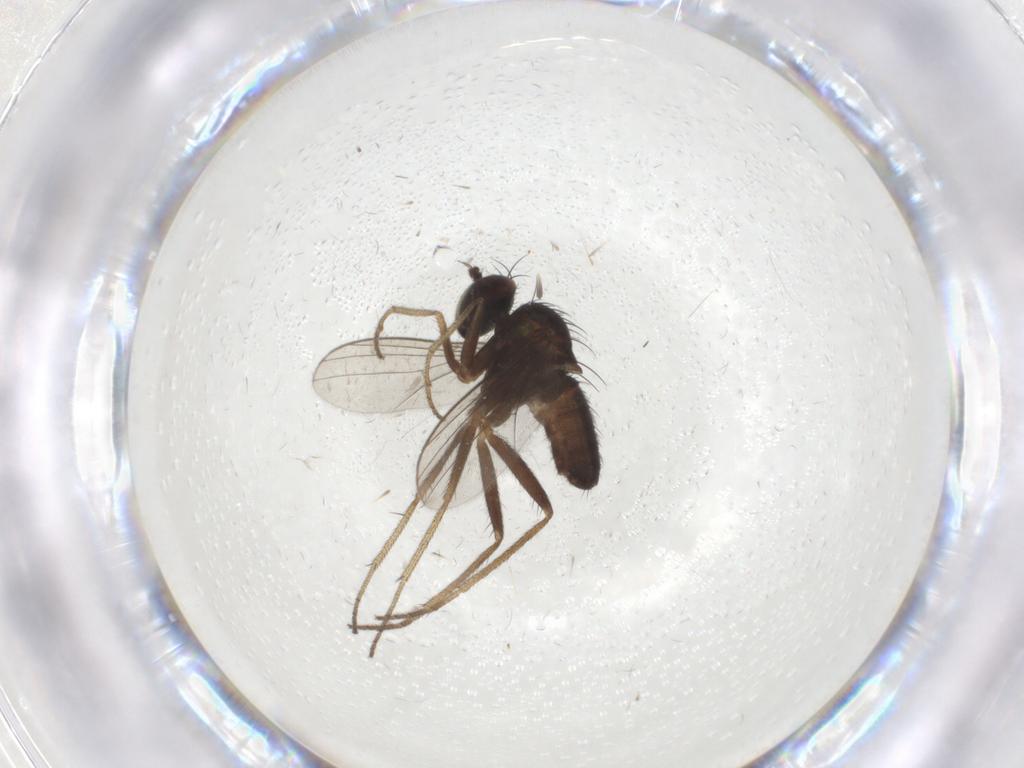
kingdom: Animalia
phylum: Arthropoda
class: Insecta
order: Diptera
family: Dolichopodidae
